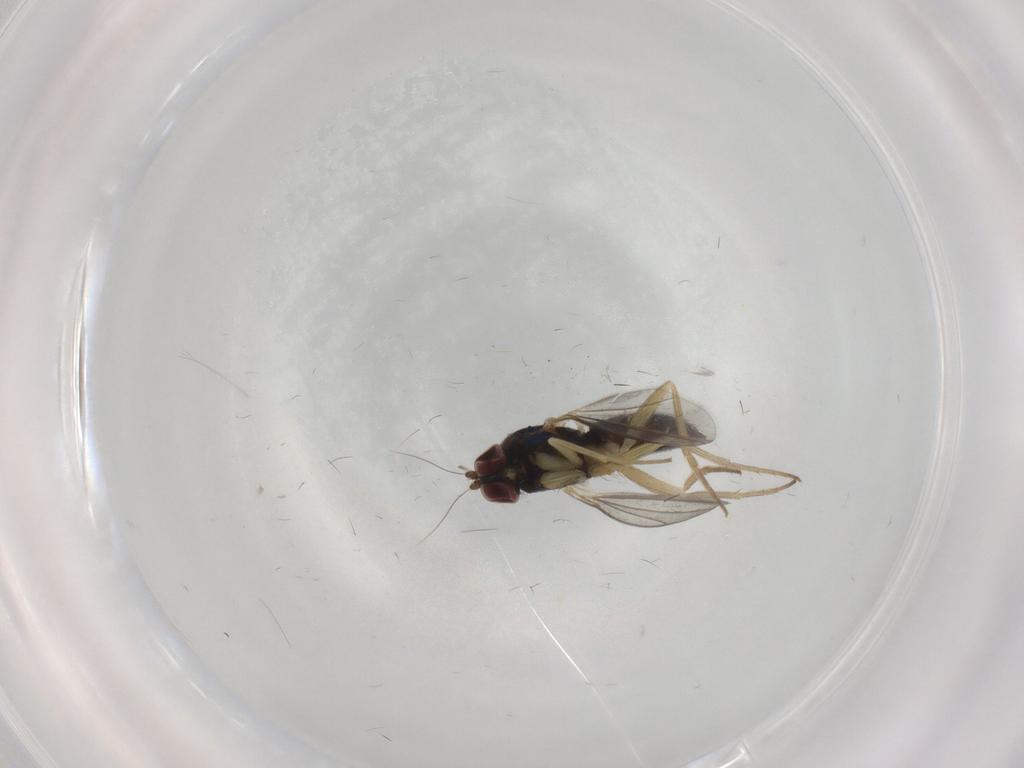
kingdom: Animalia
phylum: Arthropoda
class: Insecta
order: Diptera
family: Dolichopodidae
